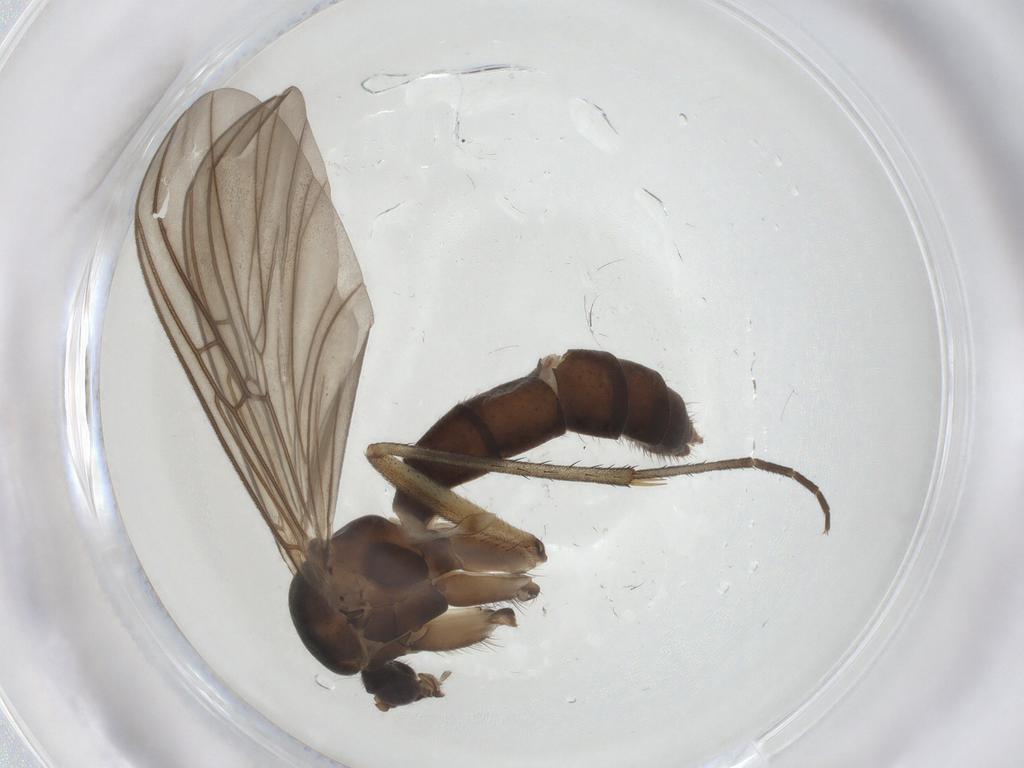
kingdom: Animalia
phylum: Arthropoda
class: Insecta
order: Diptera
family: Mycetophilidae
